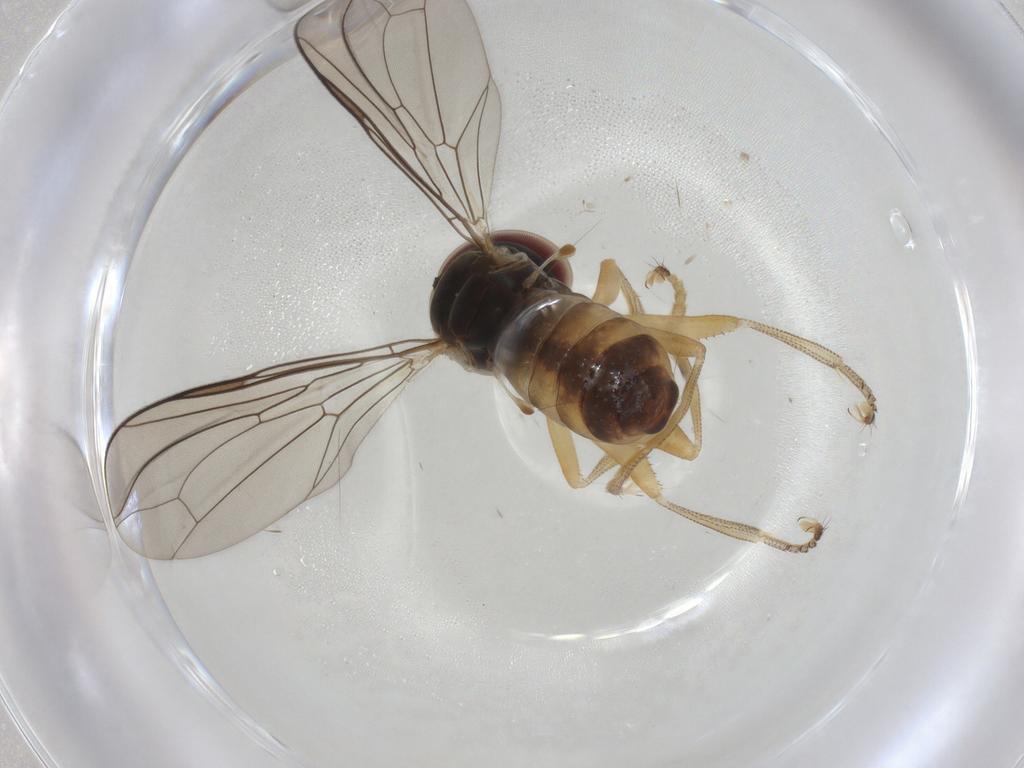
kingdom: Animalia
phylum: Arthropoda
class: Insecta
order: Diptera
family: Pipunculidae
